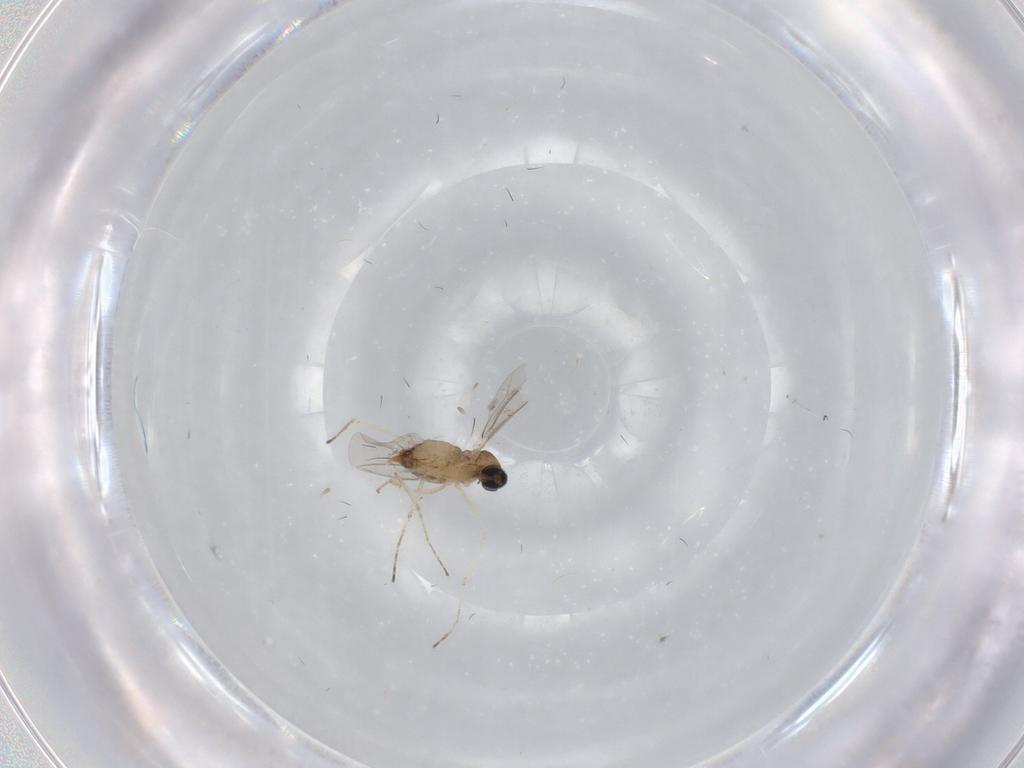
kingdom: Animalia
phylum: Arthropoda
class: Insecta
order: Diptera
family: Cecidomyiidae
